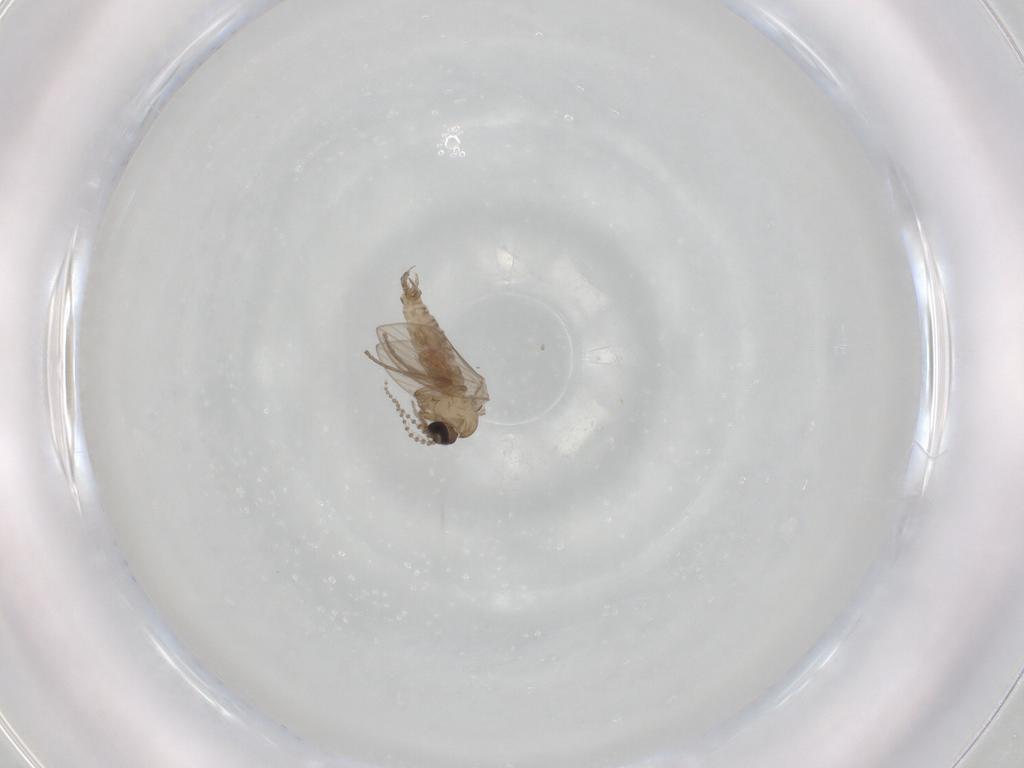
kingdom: Animalia
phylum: Arthropoda
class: Insecta
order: Diptera
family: Psychodidae
